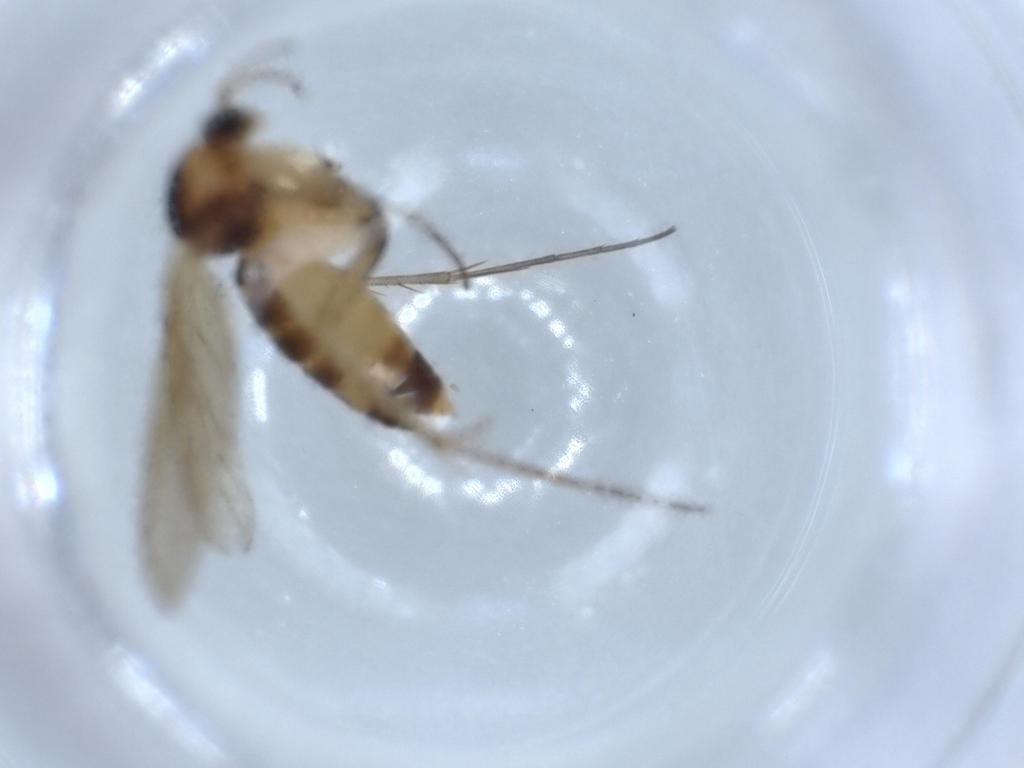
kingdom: Animalia
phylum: Arthropoda
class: Insecta
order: Diptera
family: Mycetophilidae
